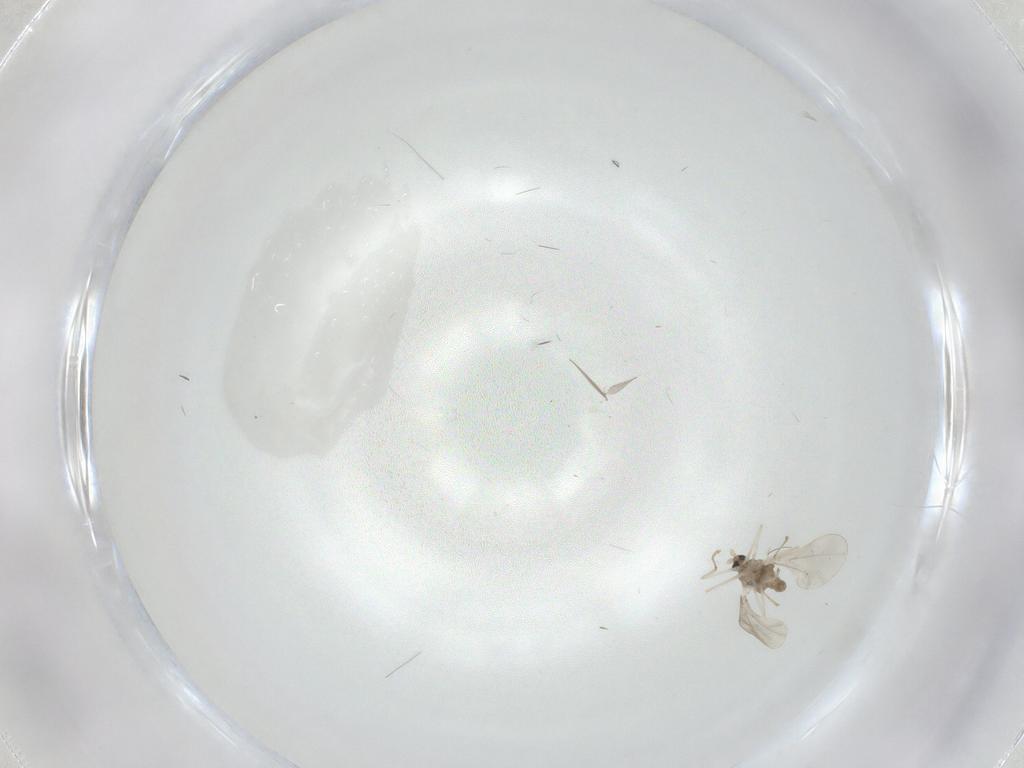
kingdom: Animalia
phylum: Arthropoda
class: Insecta
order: Diptera
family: Cecidomyiidae
